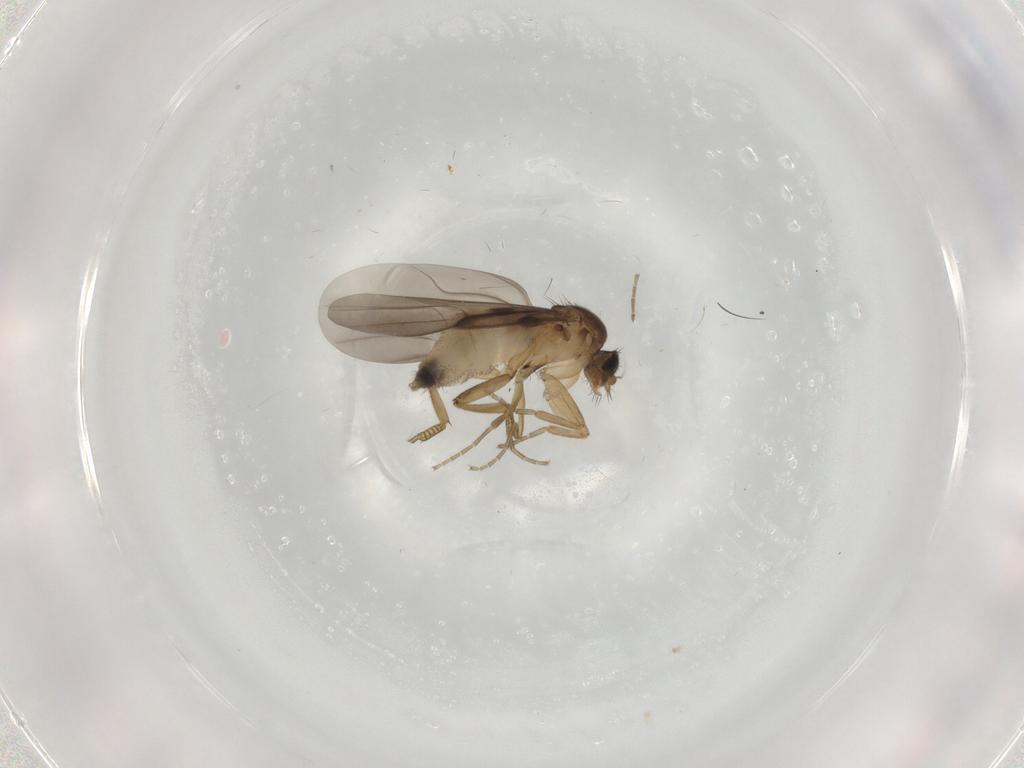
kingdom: Animalia
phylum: Arthropoda
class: Insecta
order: Diptera
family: Phoridae
